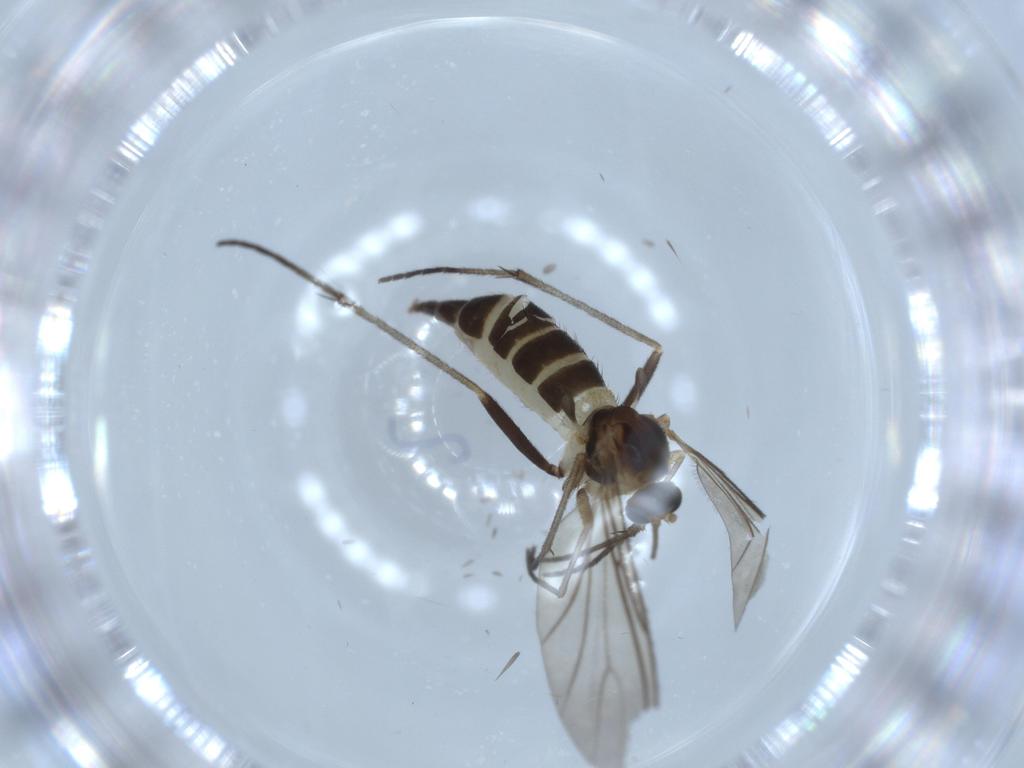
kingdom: Animalia
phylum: Arthropoda
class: Insecta
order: Diptera
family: Sciaridae
